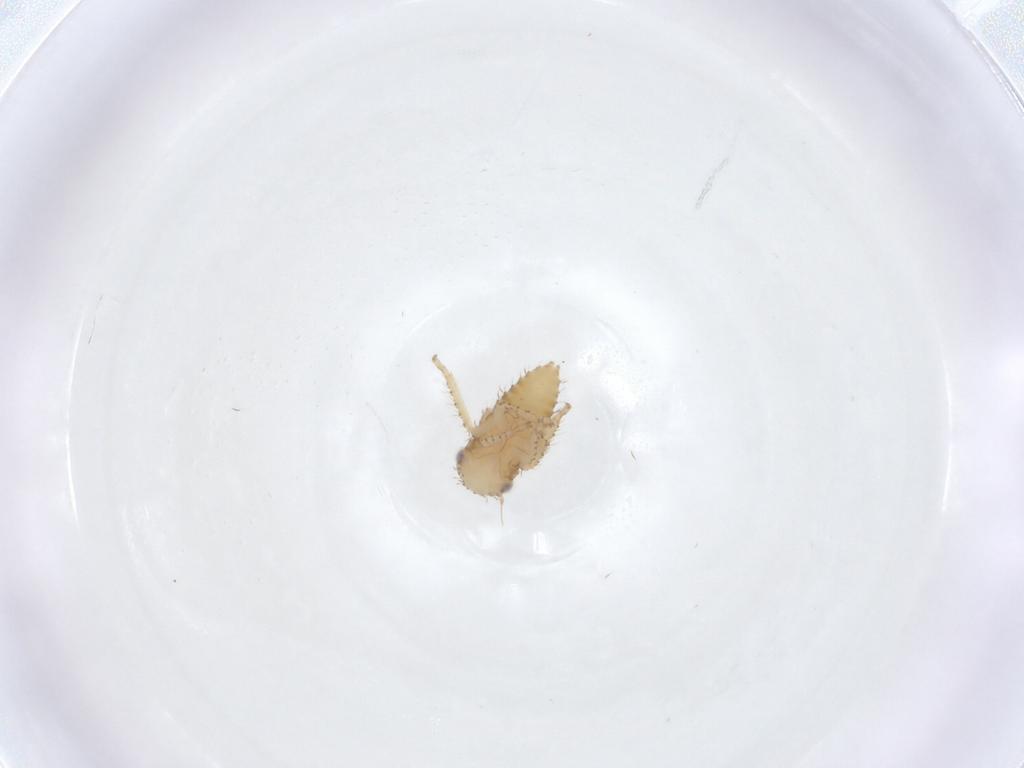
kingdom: Animalia
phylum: Arthropoda
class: Insecta
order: Hemiptera
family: Cicadellidae
